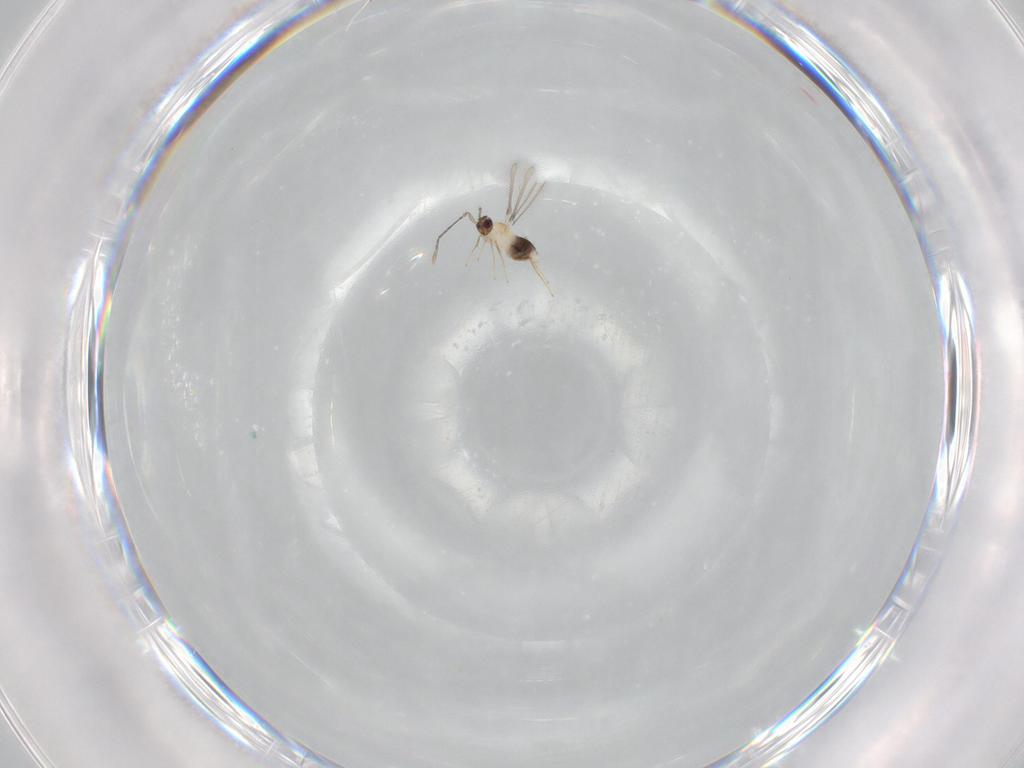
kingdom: Animalia
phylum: Arthropoda
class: Insecta
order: Hymenoptera
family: Mymaridae
